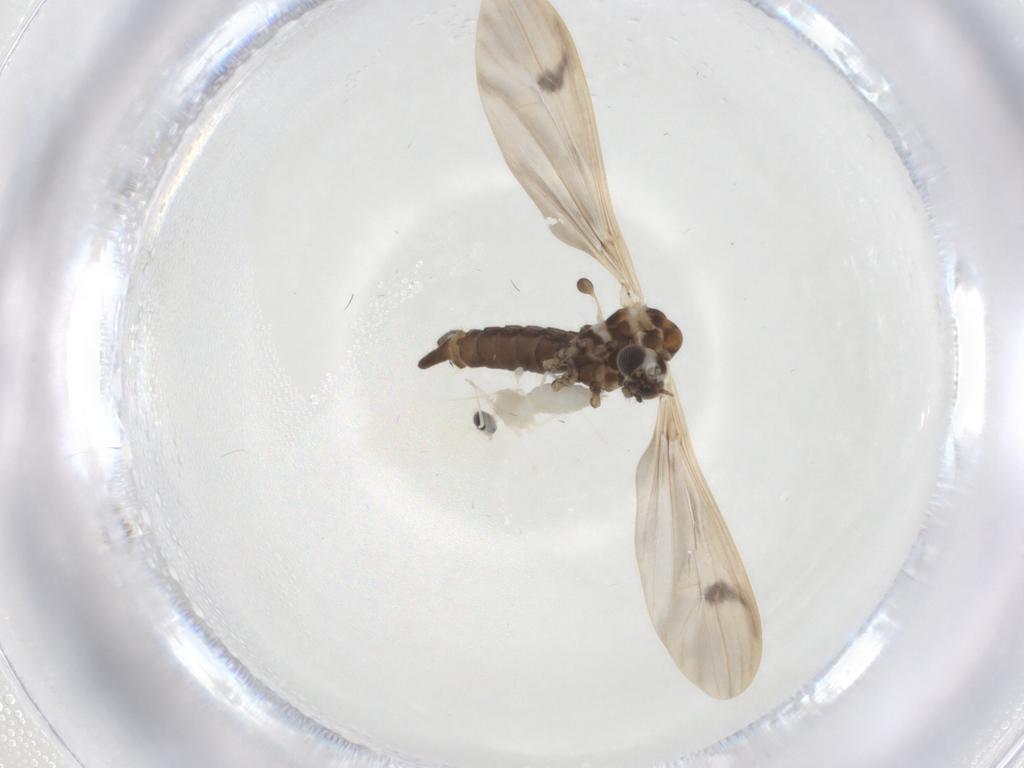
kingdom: Animalia
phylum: Arthropoda
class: Insecta
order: Diptera
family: Limoniidae
